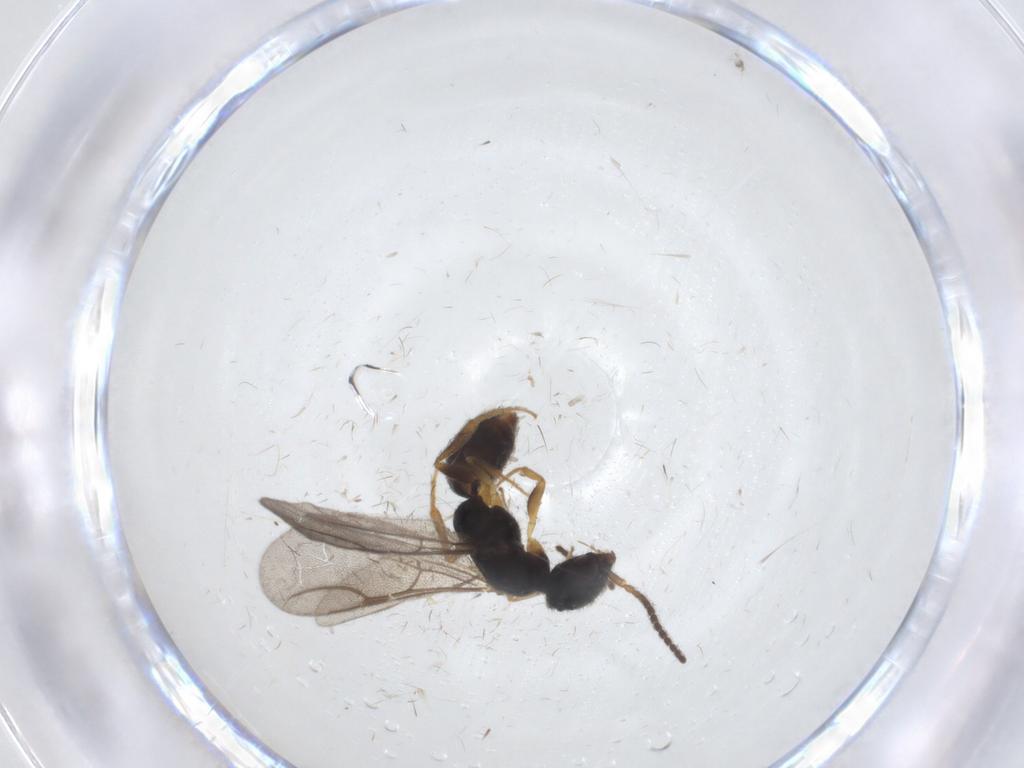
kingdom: Animalia
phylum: Arthropoda
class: Insecta
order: Hymenoptera
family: Bethylidae
